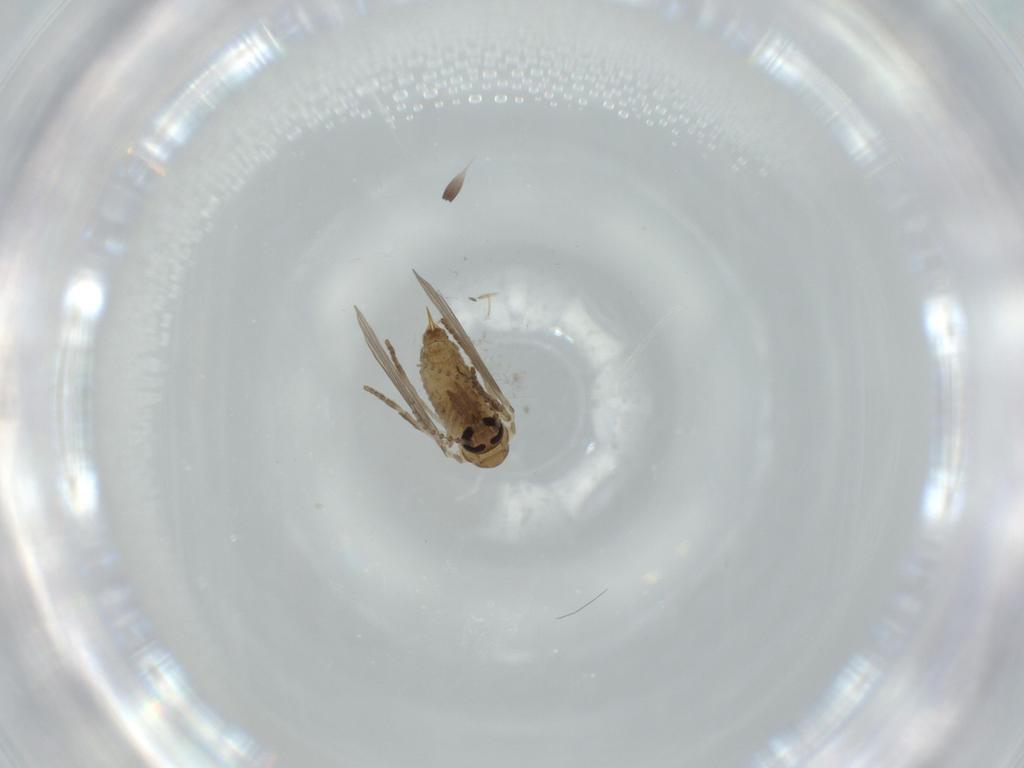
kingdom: Animalia
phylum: Arthropoda
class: Insecta
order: Diptera
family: Psychodidae
